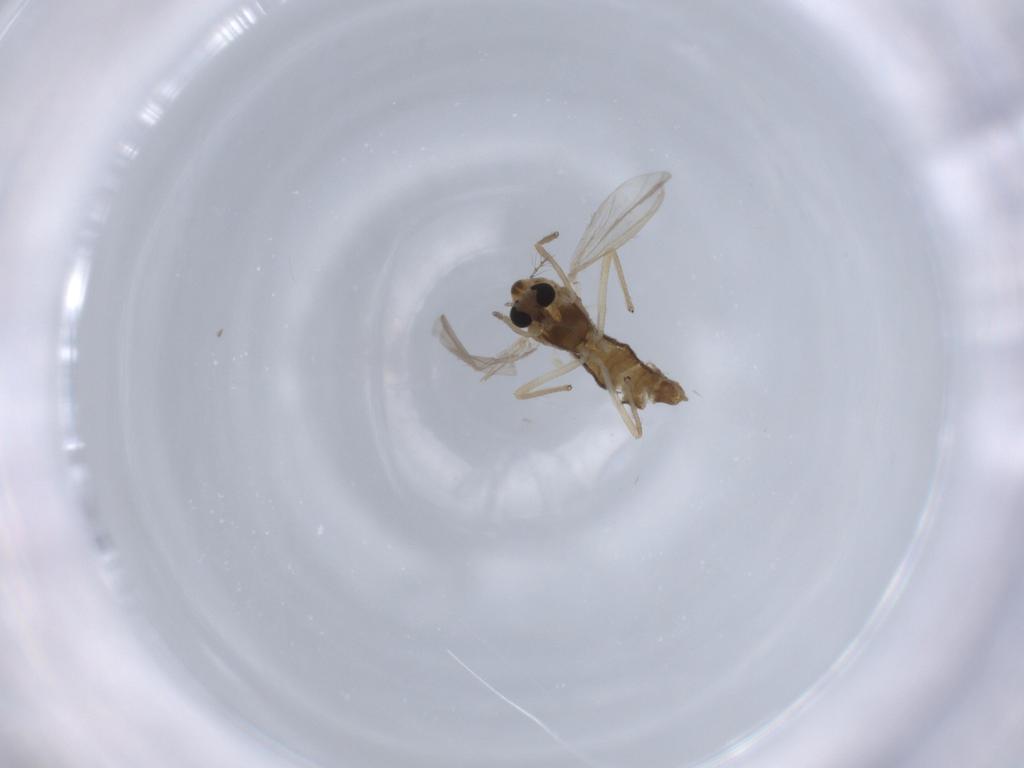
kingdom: Animalia
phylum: Arthropoda
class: Insecta
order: Diptera
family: Chironomidae
